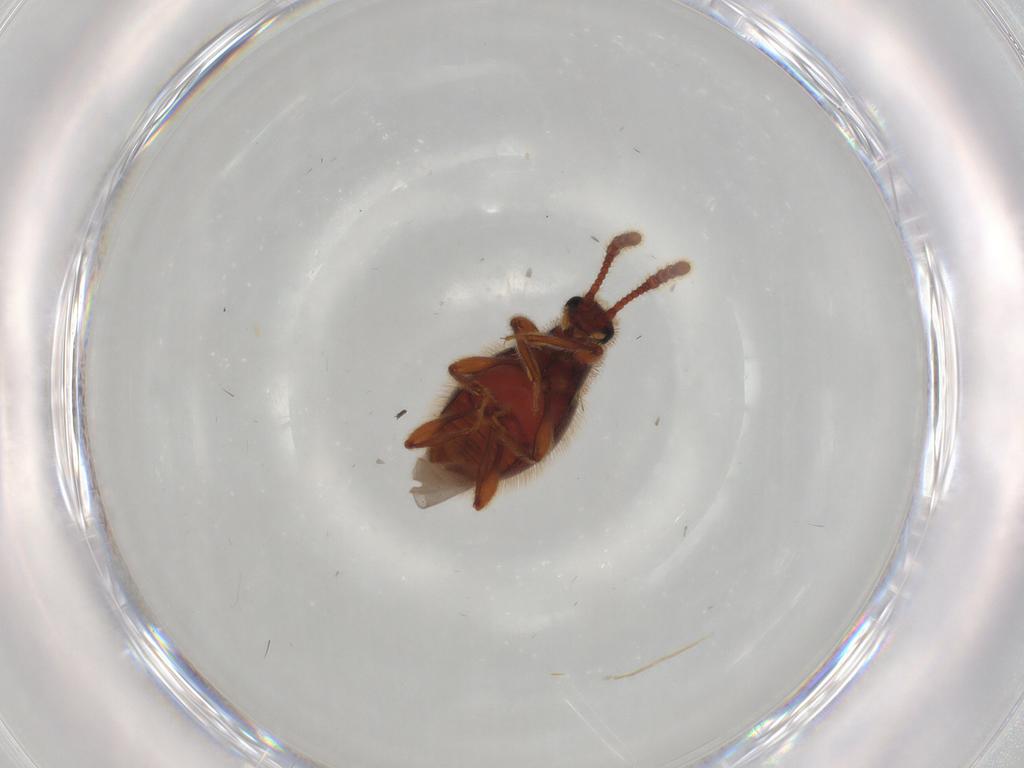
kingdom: Animalia
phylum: Arthropoda
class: Insecta
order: Coleoptera
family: Staphylinidae
